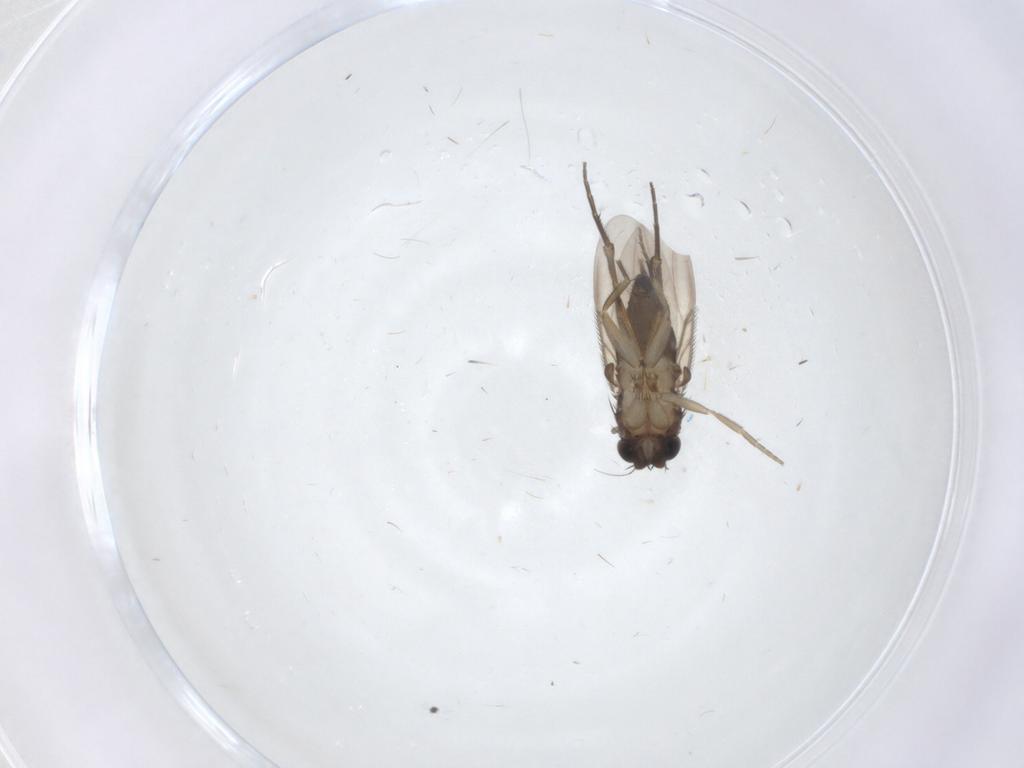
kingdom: Animalia
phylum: Arthropoda
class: Insecta
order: Diptera
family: Phoridae
